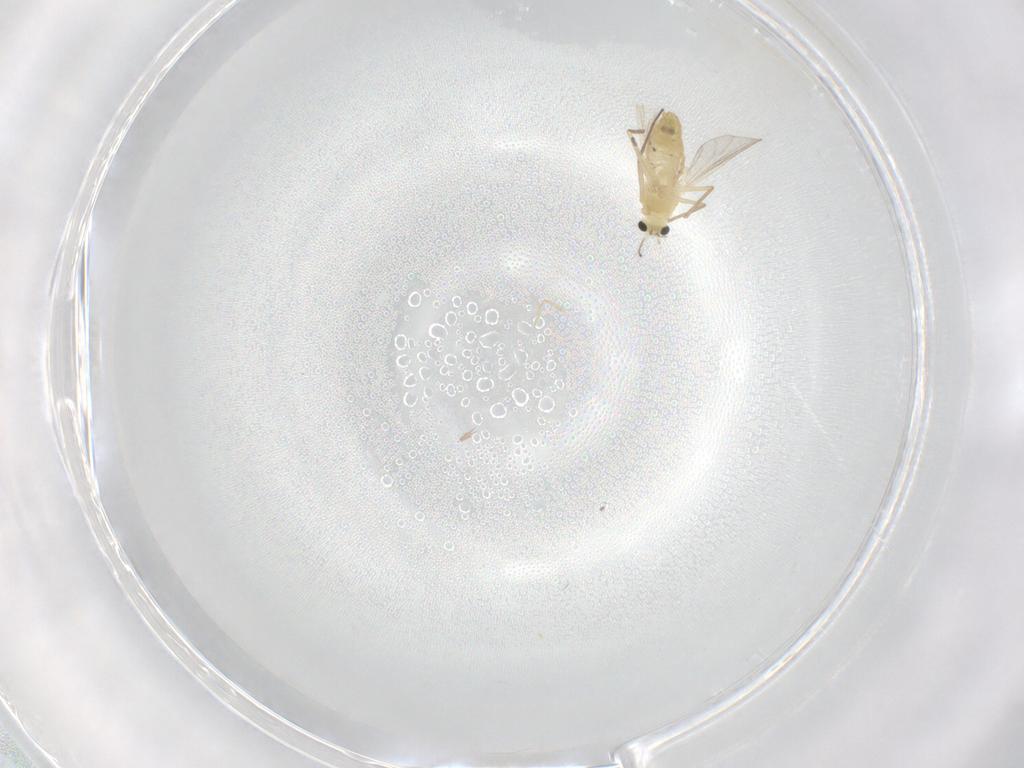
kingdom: Animalia
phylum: Arthropoda
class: Insecta
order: Diptera
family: Chironomidae
